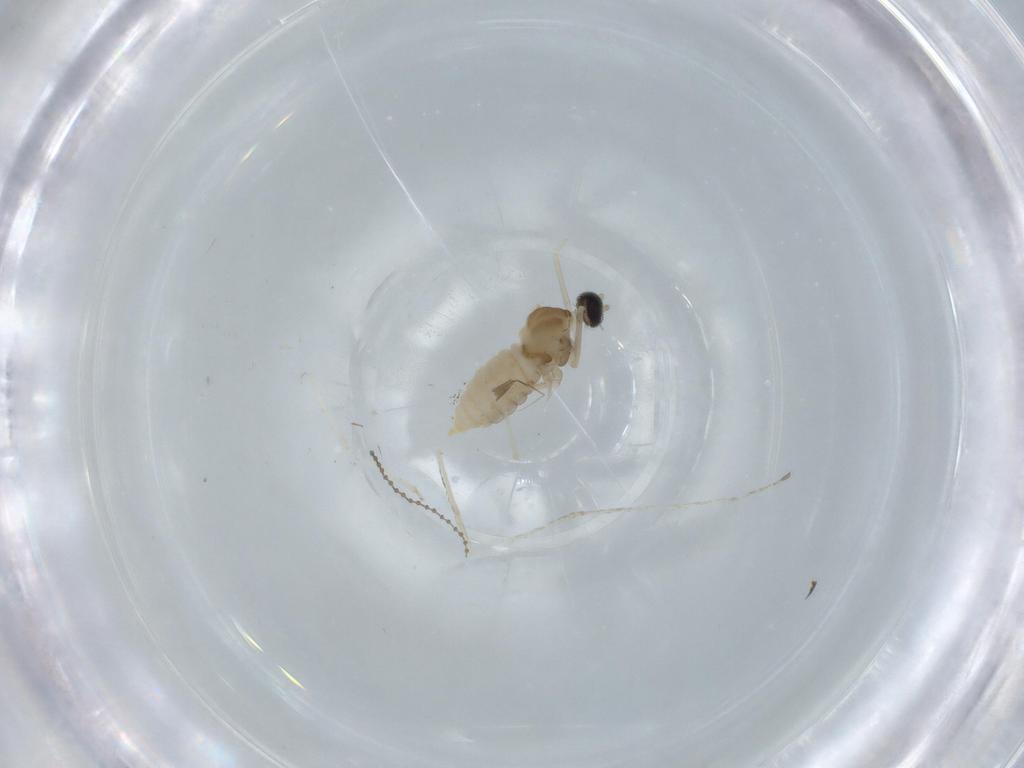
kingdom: Animalia
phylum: Arthropoda
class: Insecta
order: Diptera
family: Cecidomyiidae
